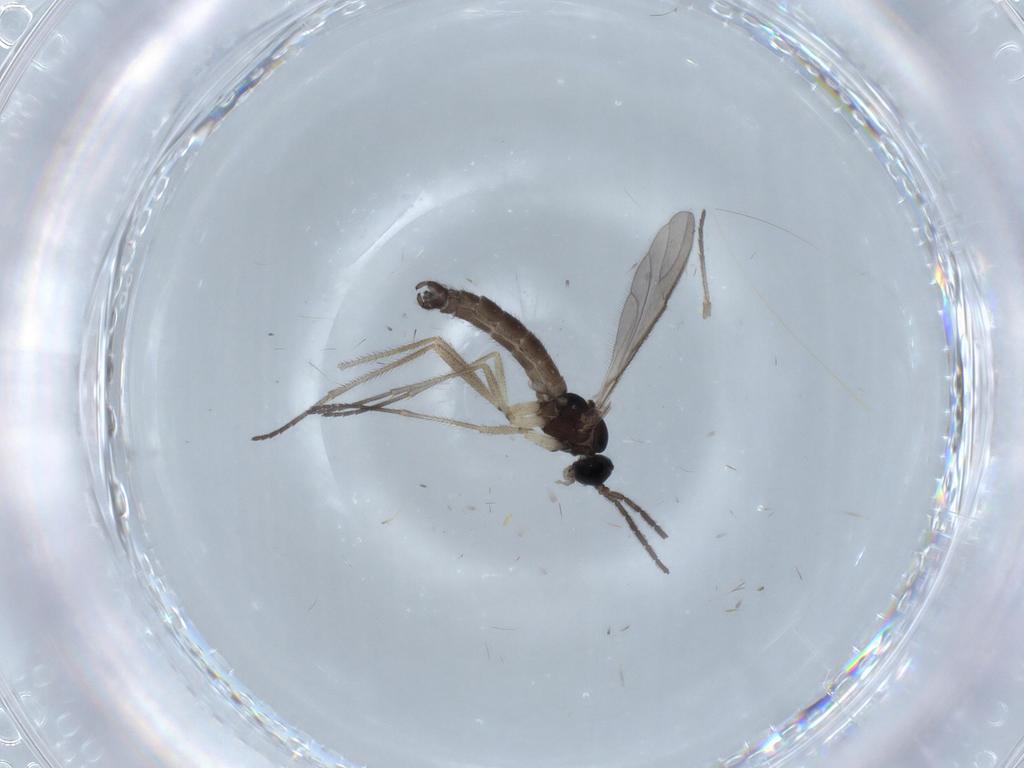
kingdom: Animalia
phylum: Arthropoda
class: Insecta
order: Diptera
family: Sciaridae
